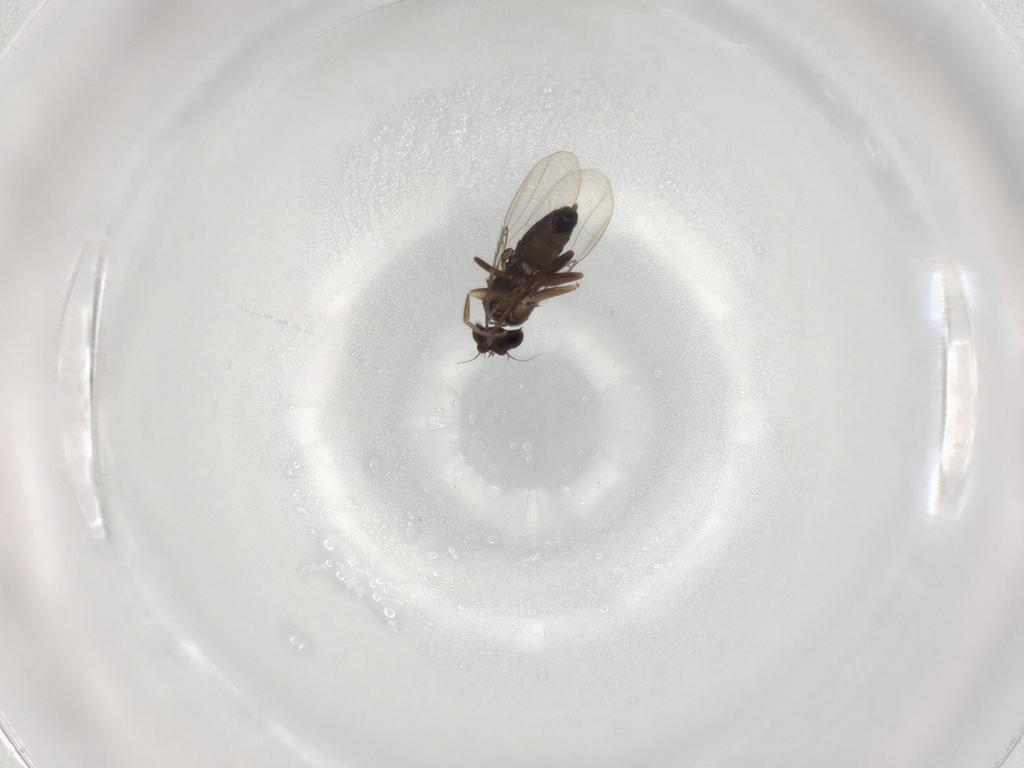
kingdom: Animalia
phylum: Arthropoda
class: Insecta
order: Diptera
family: Phoridae
